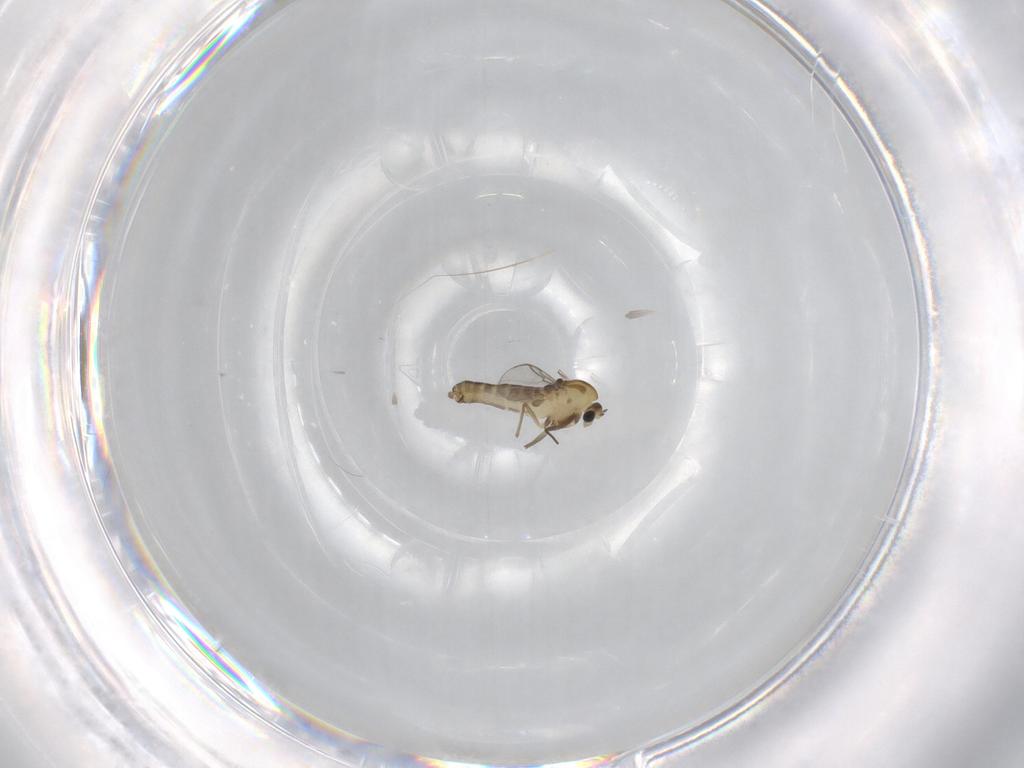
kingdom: Animalia
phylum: Arthropoda
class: Insecta
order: Diptera
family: Chironomidae
